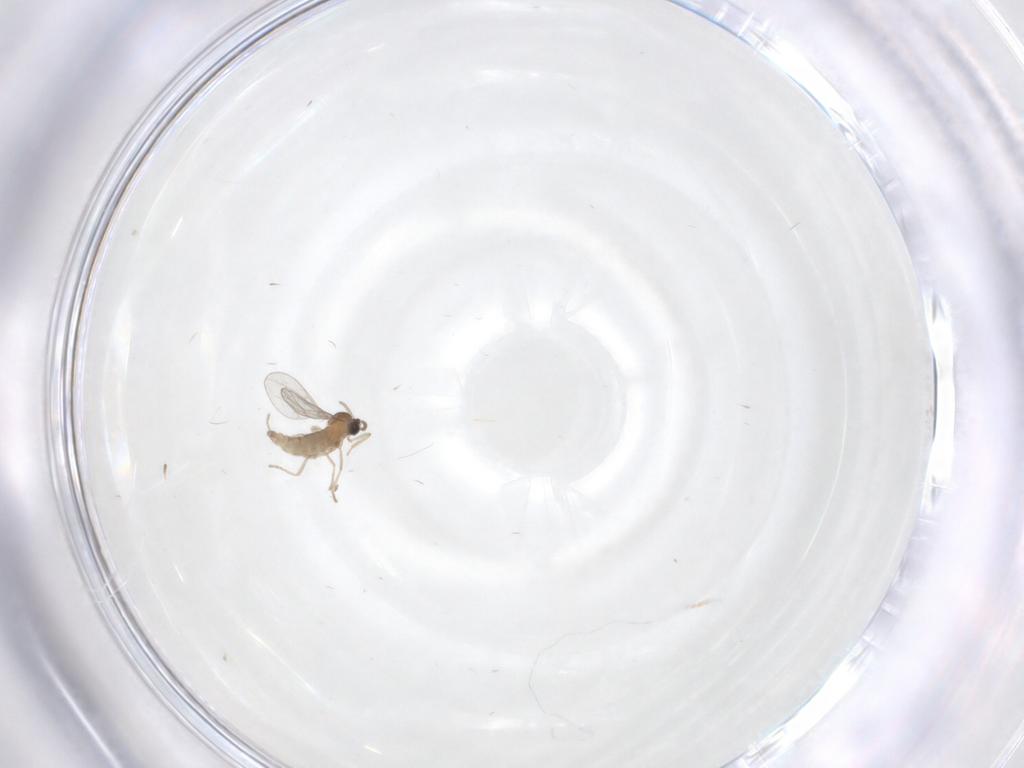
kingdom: Animalia
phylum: Arthropoda
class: Insecta
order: Diptera
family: Cecidomyiidae
